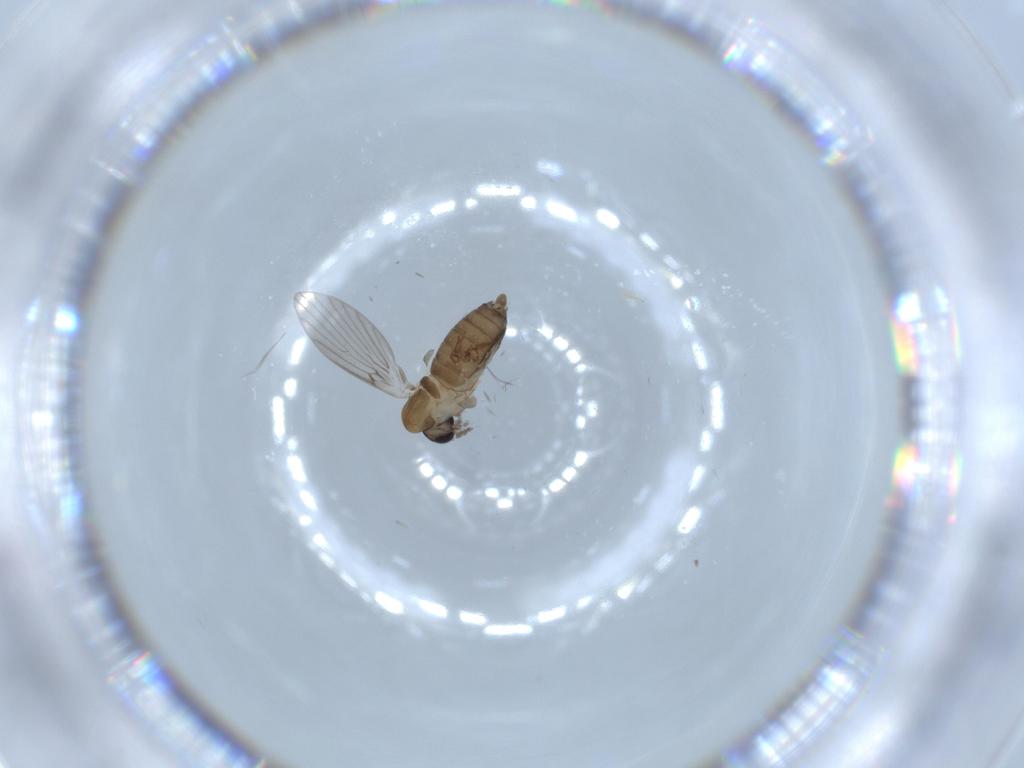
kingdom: Animalia
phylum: Arthropoda
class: Insecta
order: Diptera
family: Psychodidae
